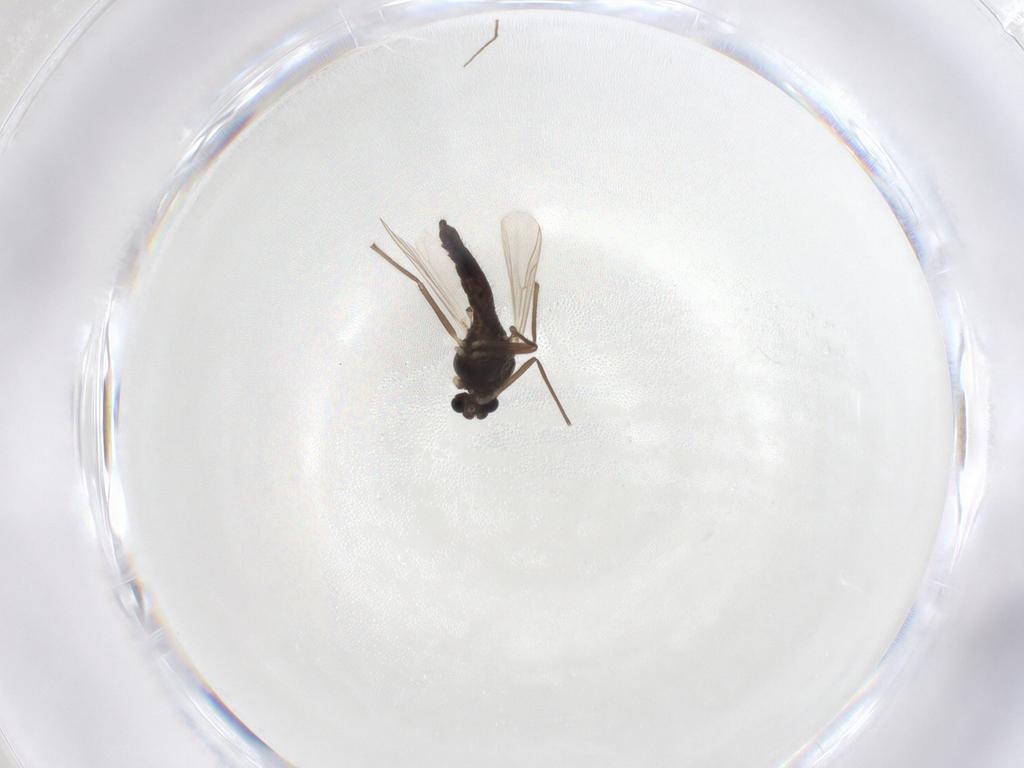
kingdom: Animalia
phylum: Arthropoda
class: Insecta
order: Diptera
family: Chironomidae
